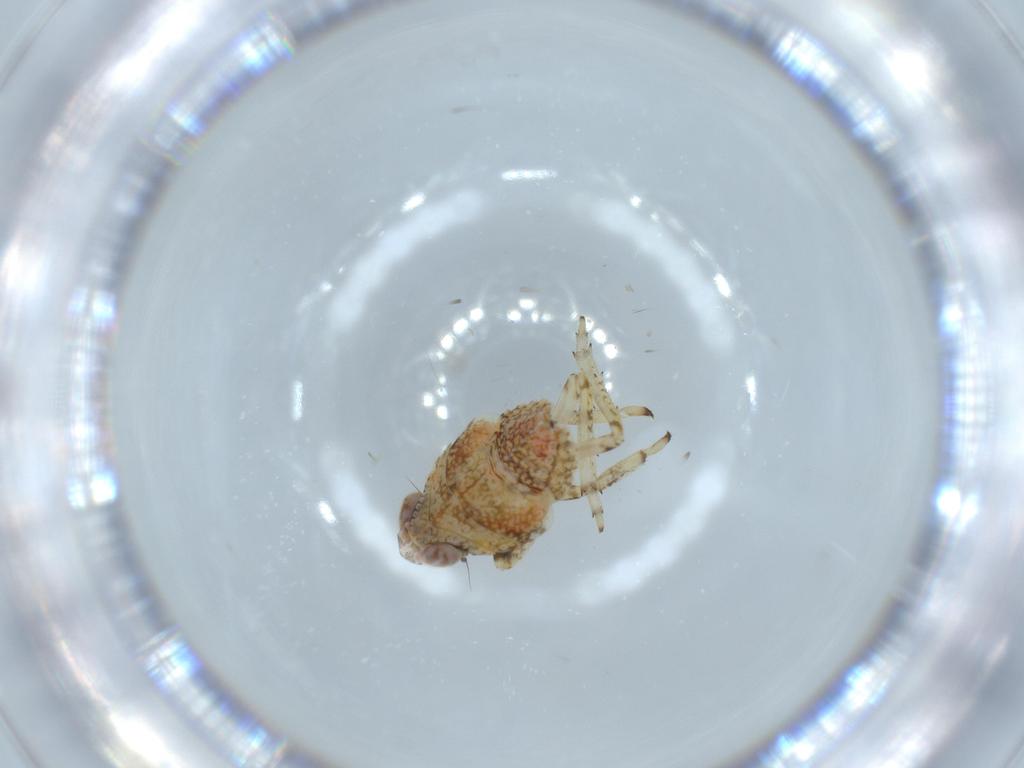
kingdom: Animalia
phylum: Arthropoda
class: Insecta
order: Hemiptera
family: Issidae
